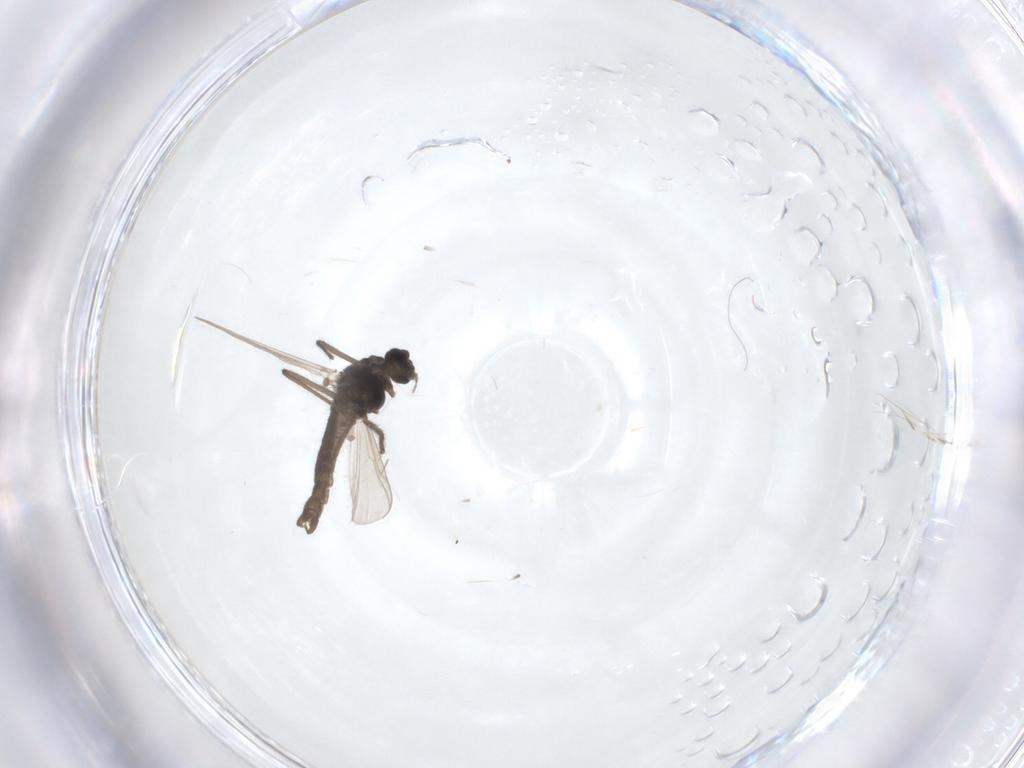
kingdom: Animalia
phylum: Arthropoda
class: Insecta
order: Diptera
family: Chironomidae
